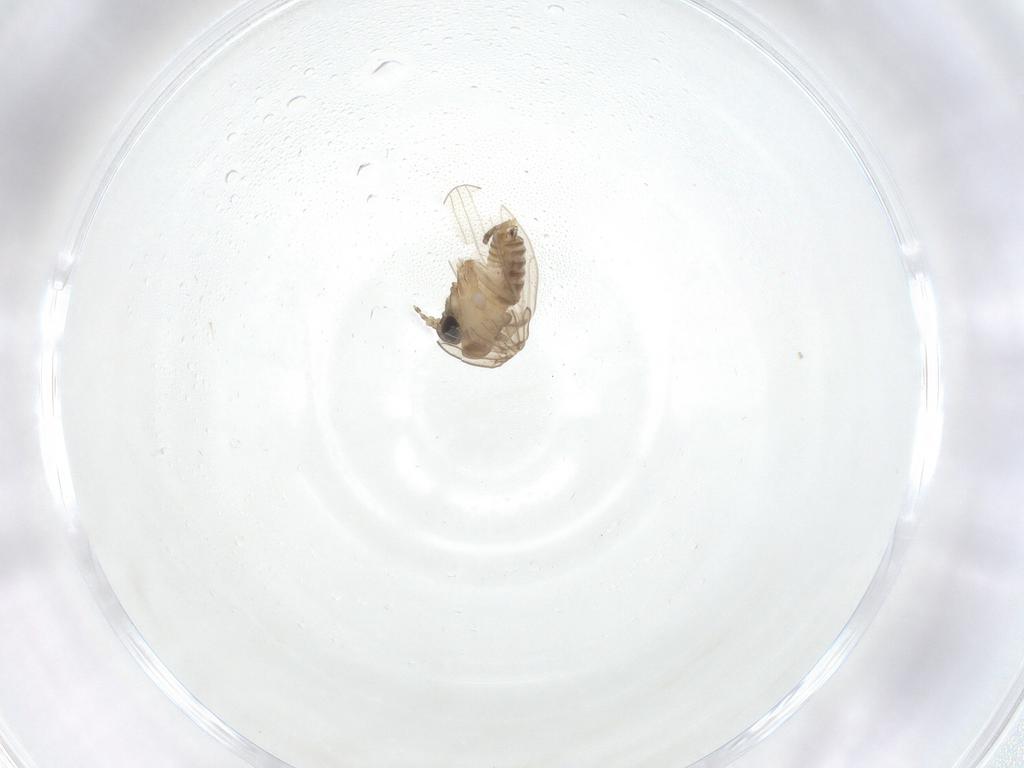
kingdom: Animalia
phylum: Arthropoda
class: Insecta
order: Diptera
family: Sciaridae
